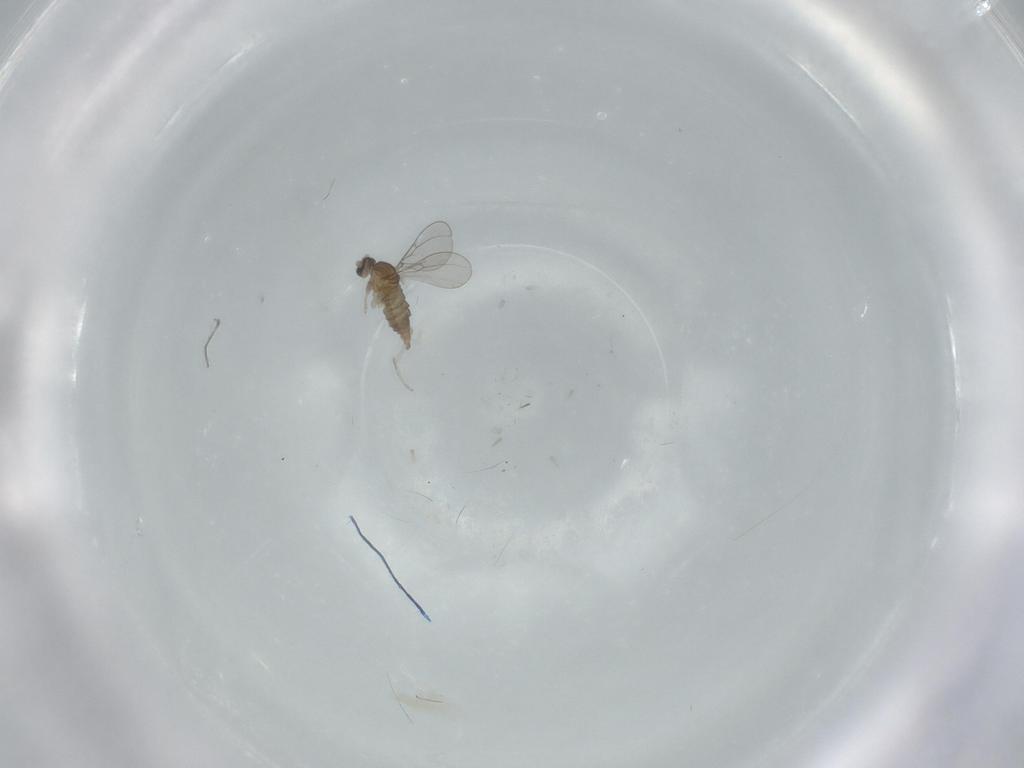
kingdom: Animalia
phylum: Arthropoda
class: Insecta
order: Diptera
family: Cecidomyiidae
